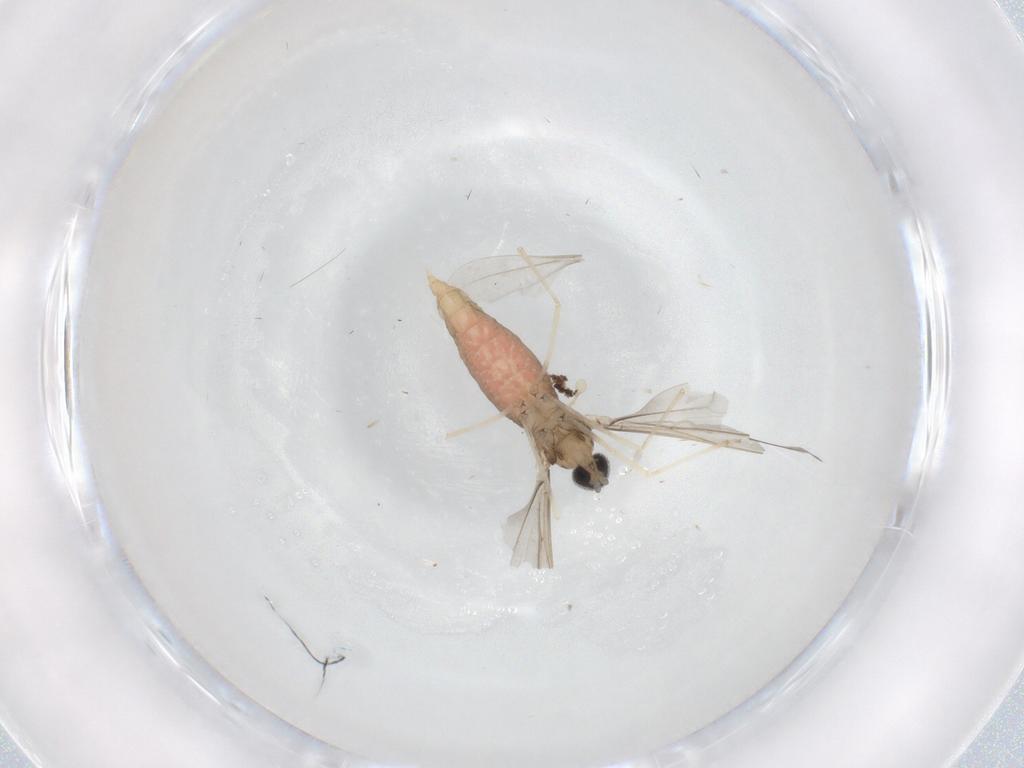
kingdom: Animalia
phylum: Arthropoda
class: Insecta
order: Diptera
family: Cecidomyiidae
